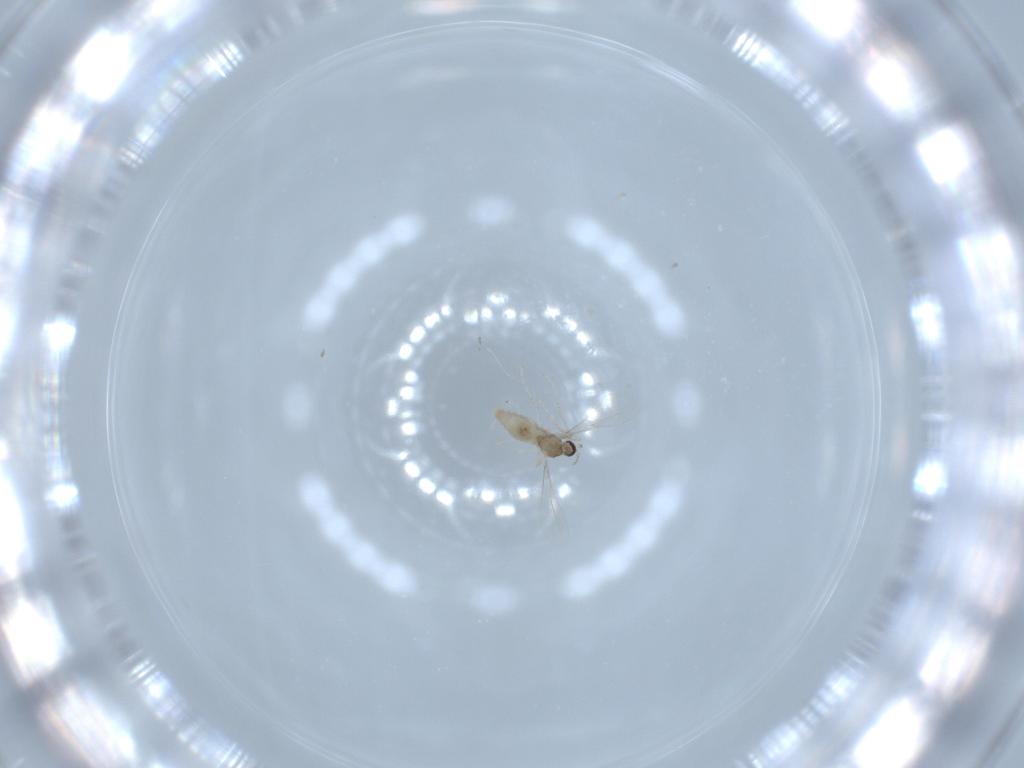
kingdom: Animalia
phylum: Arthropoda
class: Insecta
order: Diptera
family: Cecidomyiidae
